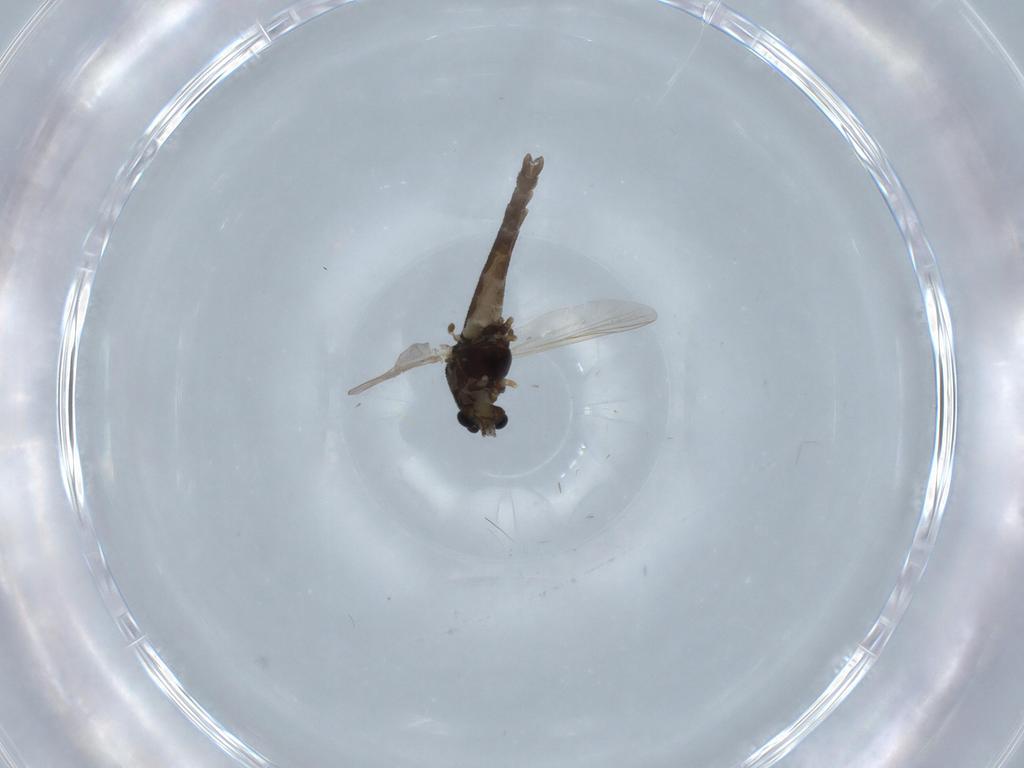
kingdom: Animalia
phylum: Arthropoda
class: Insecta
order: Diptera
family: Chironomidae
